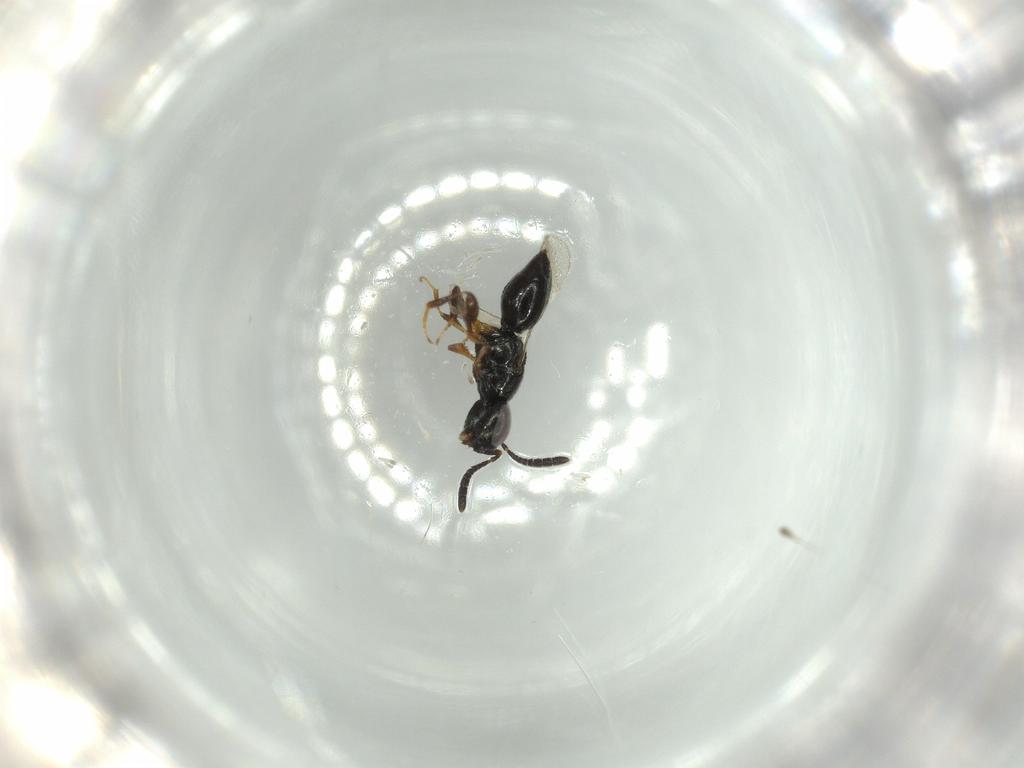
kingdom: Animalia
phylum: Arthropoda
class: Insecta
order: Hymenoptera
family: Ceraphronidae
